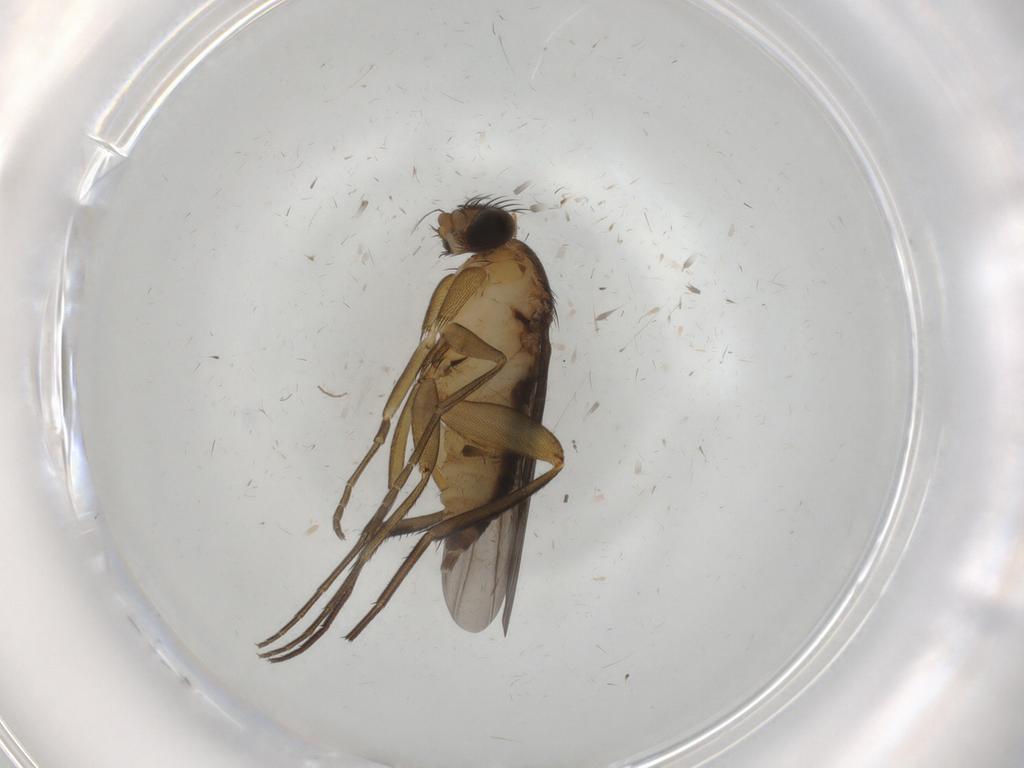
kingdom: Animalia
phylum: Arthropoda
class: Insecta
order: Diptera
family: Phoridae
